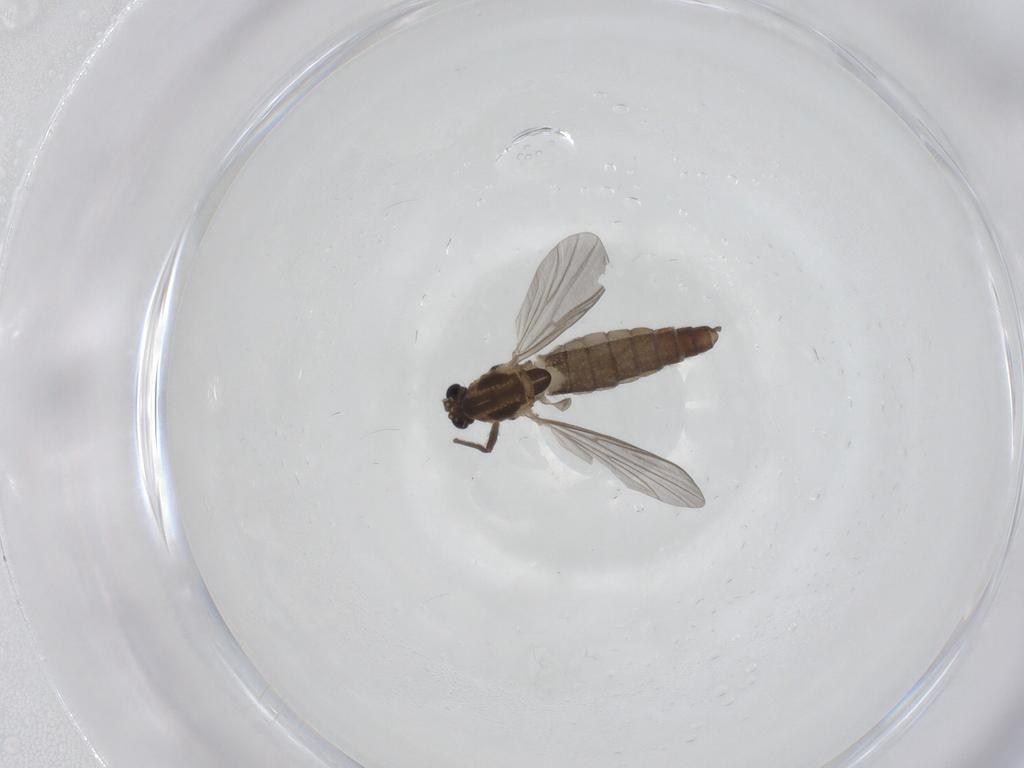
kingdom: Animalia
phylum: Arthropoda
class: Insecta
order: Diptera
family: Chironomidae
